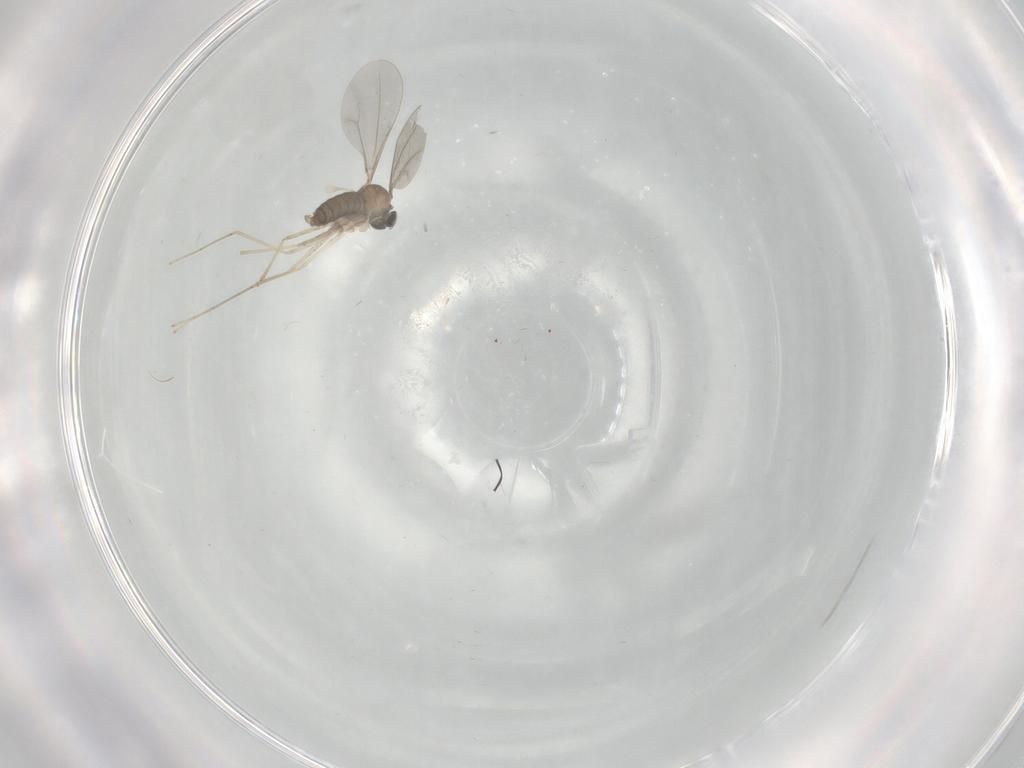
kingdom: Animalia
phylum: Arthropoda
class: Insecta
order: Diptera
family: Cecidomyiidae
